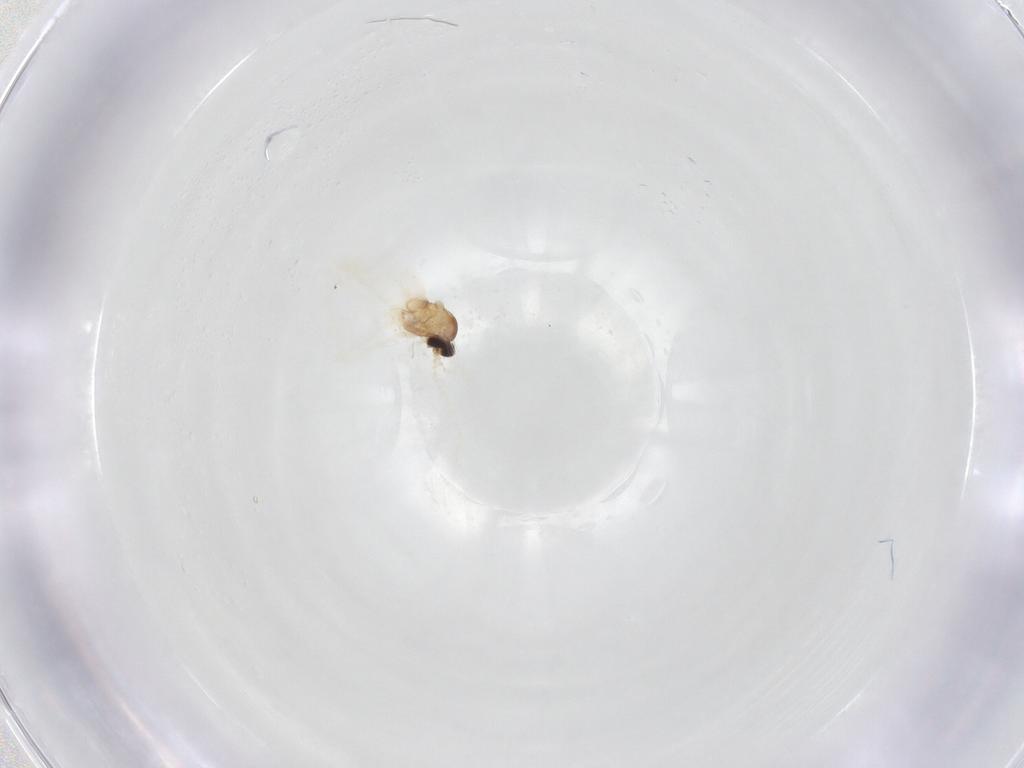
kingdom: Animalia
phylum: Arthropoda
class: Insecta
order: Diptera
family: Cecidomyiidae
